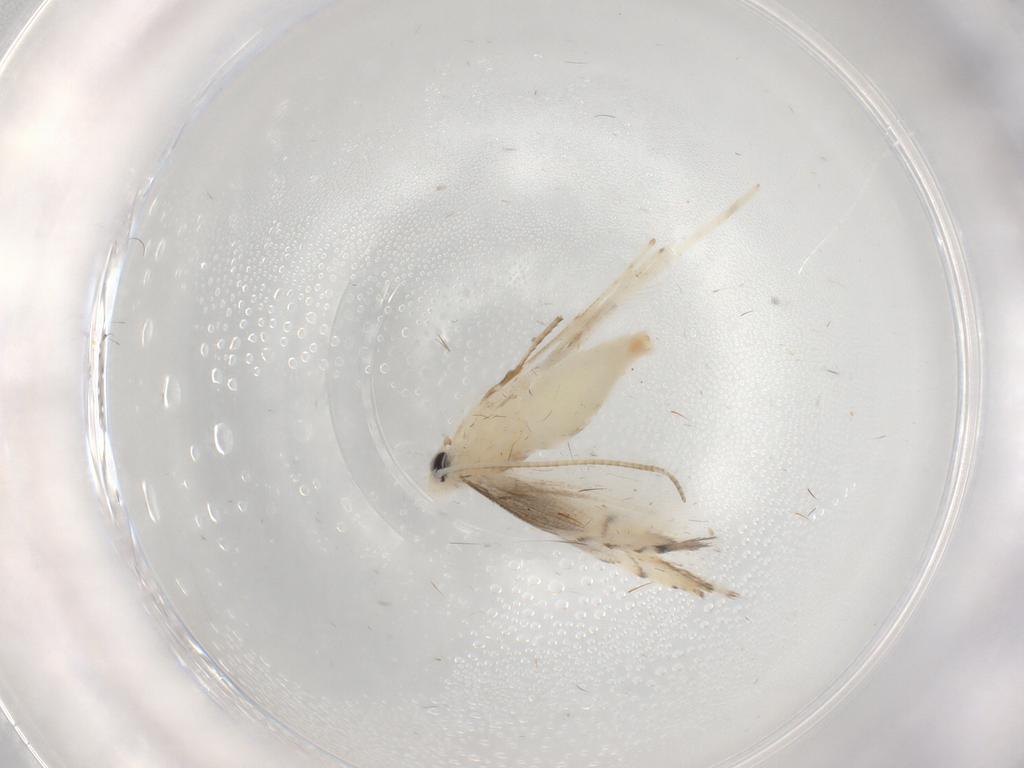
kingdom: Animalia
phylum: Arthropoda
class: Insecta
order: Lepidoptera
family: Gracillariidae
